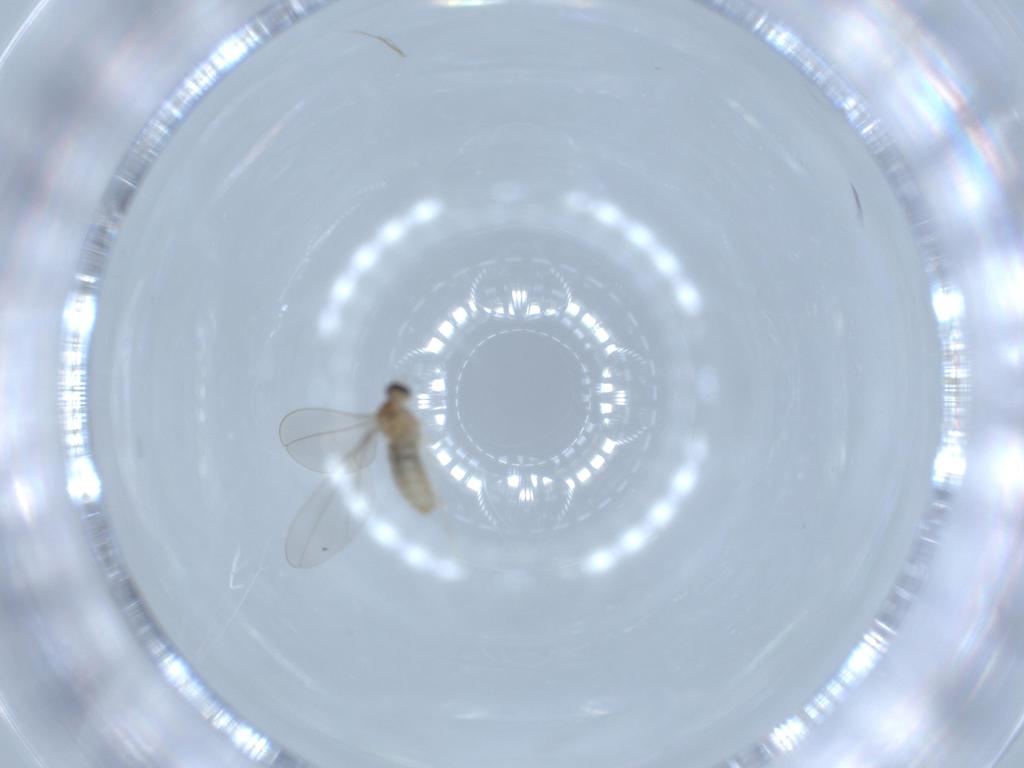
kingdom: Animalia
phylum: Arthropoda
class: Insecta
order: Diptera
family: Cecidomyiidae
